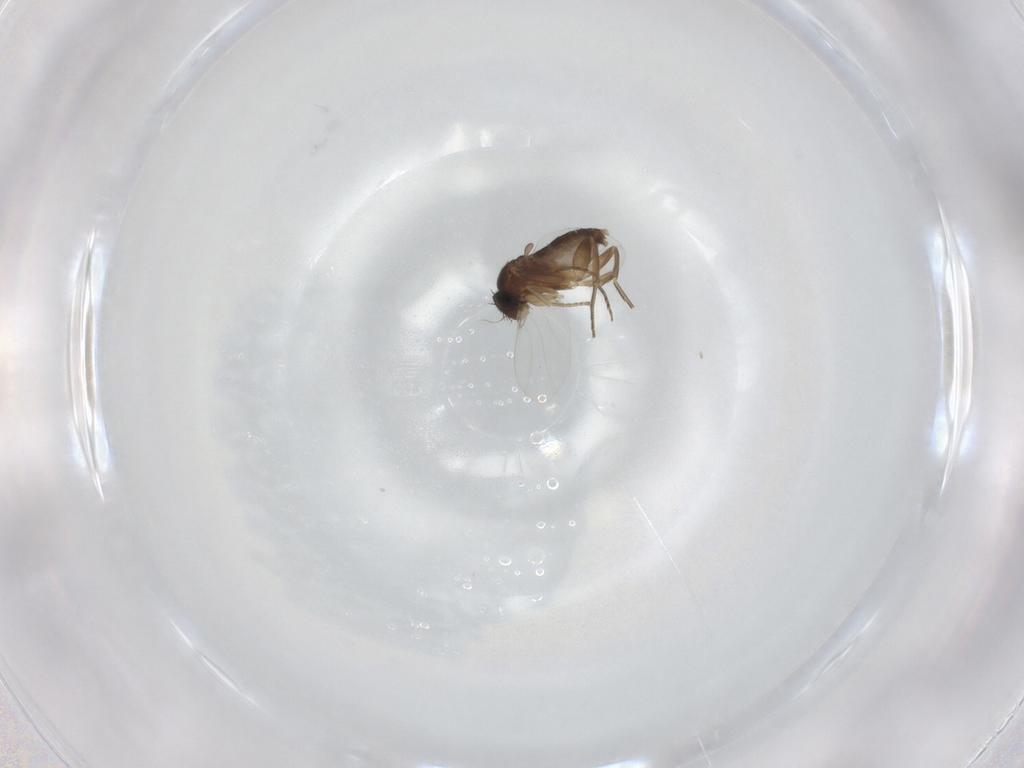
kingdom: Animalia
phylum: Arthropoda
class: Insecta
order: Diptera
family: Phoridae
